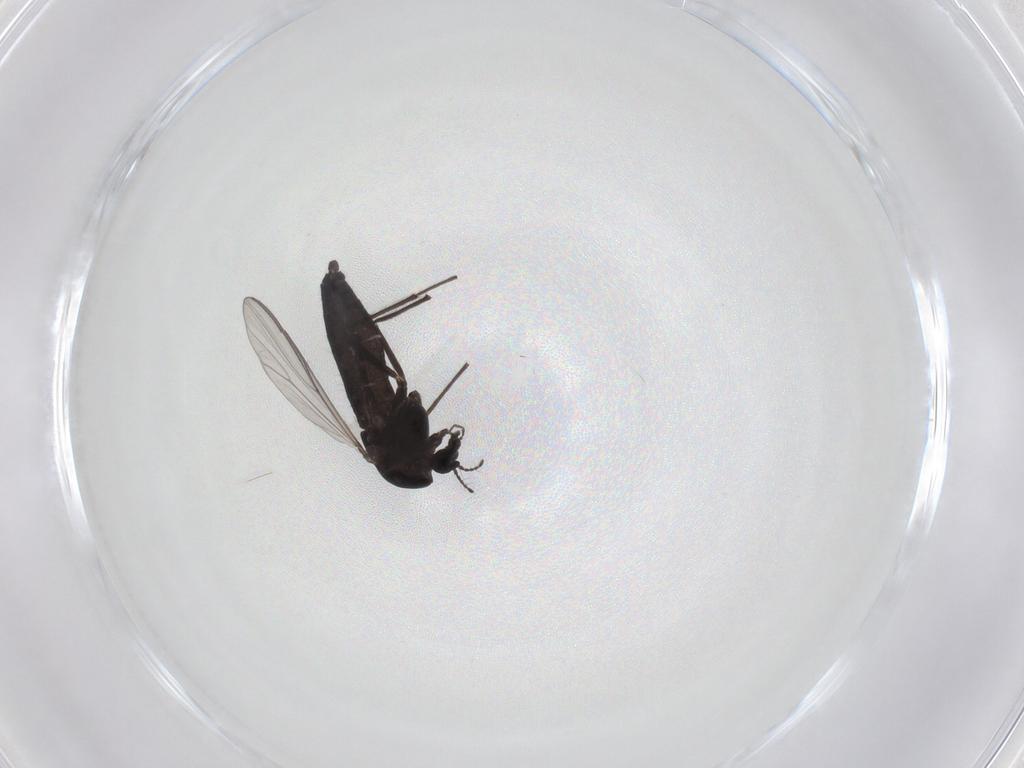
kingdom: Animalia
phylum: Arthropoda
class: Insecta
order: Diptera
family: Chironomidae
